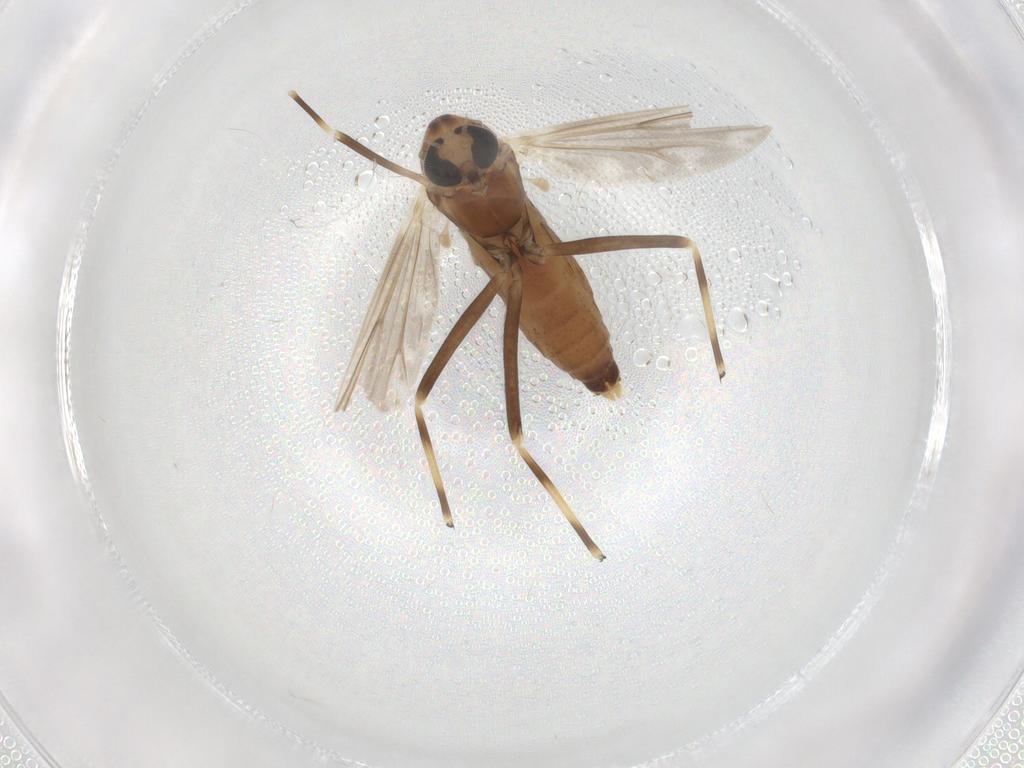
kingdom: Animalia
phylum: Arthropoda
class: Insecta
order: Diptera
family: Chironomidae
